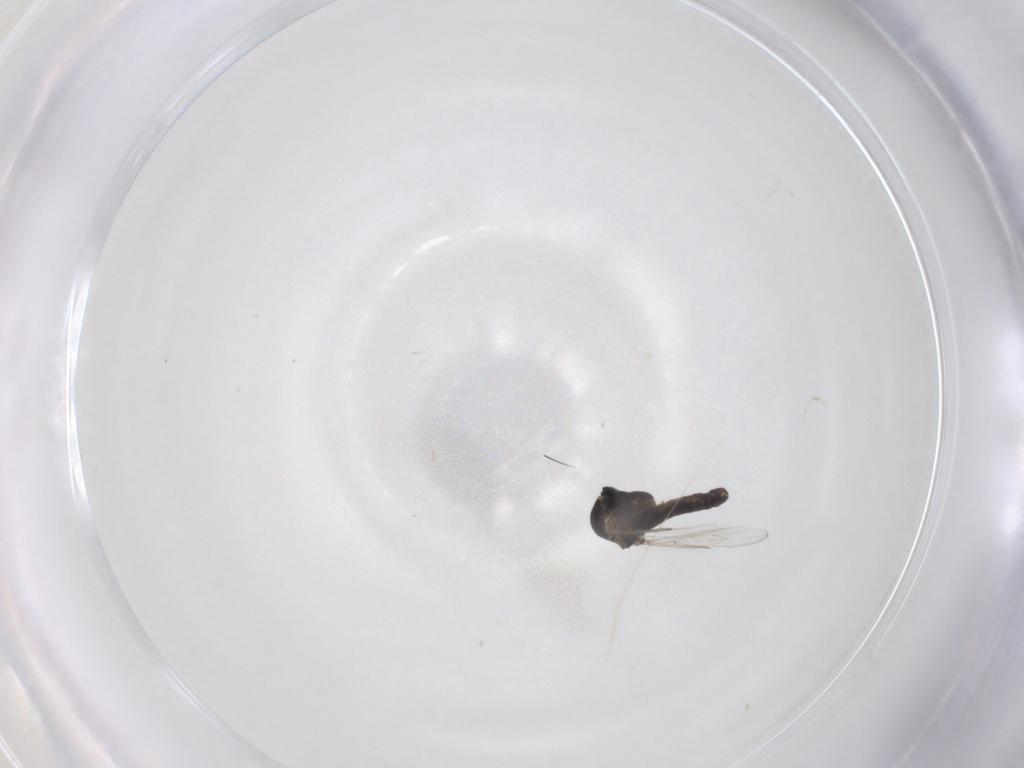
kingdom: Animalia
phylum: Arthropoda
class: Insecta
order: Diptera
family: Ceratopogonidae
